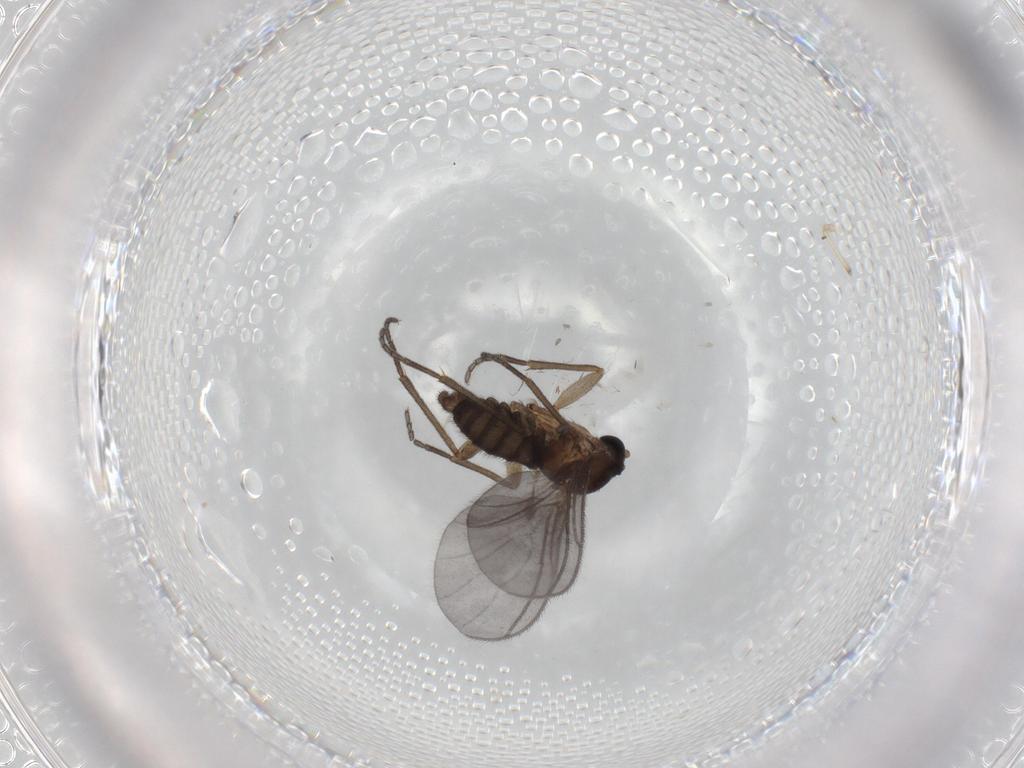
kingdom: Animalia
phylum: Arthropoda
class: Insecta
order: Diptera
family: Sciaridae
